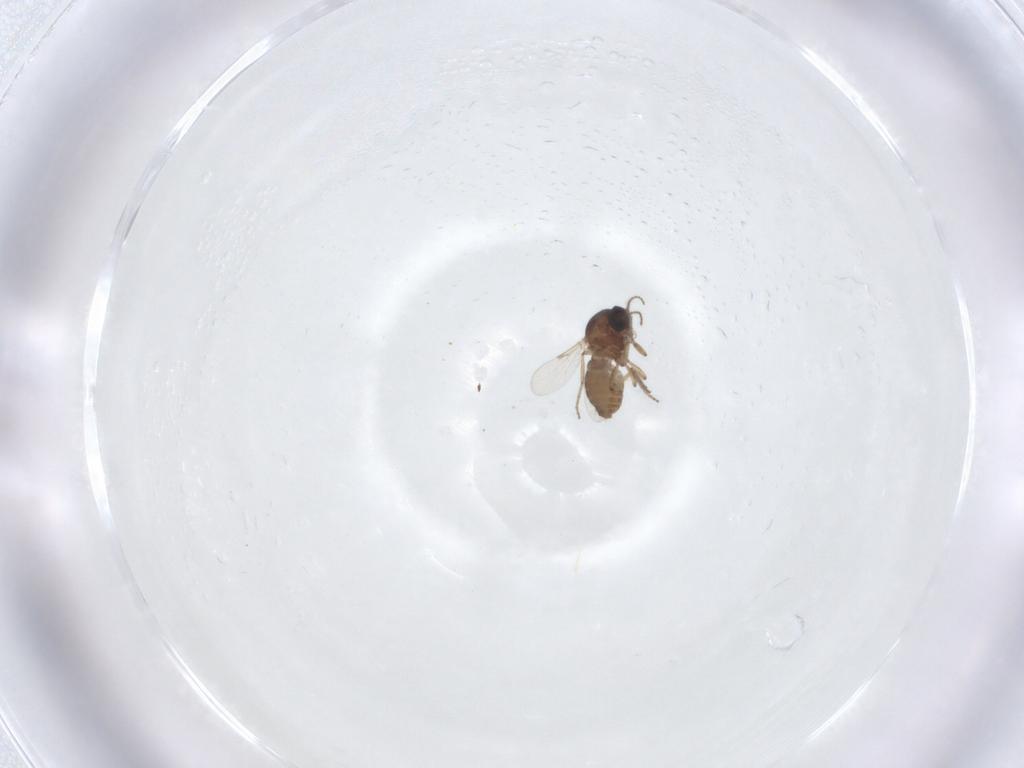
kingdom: Animalia
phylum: Arthropoda
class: Insecta
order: Diptera
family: Ceratopogonidae
